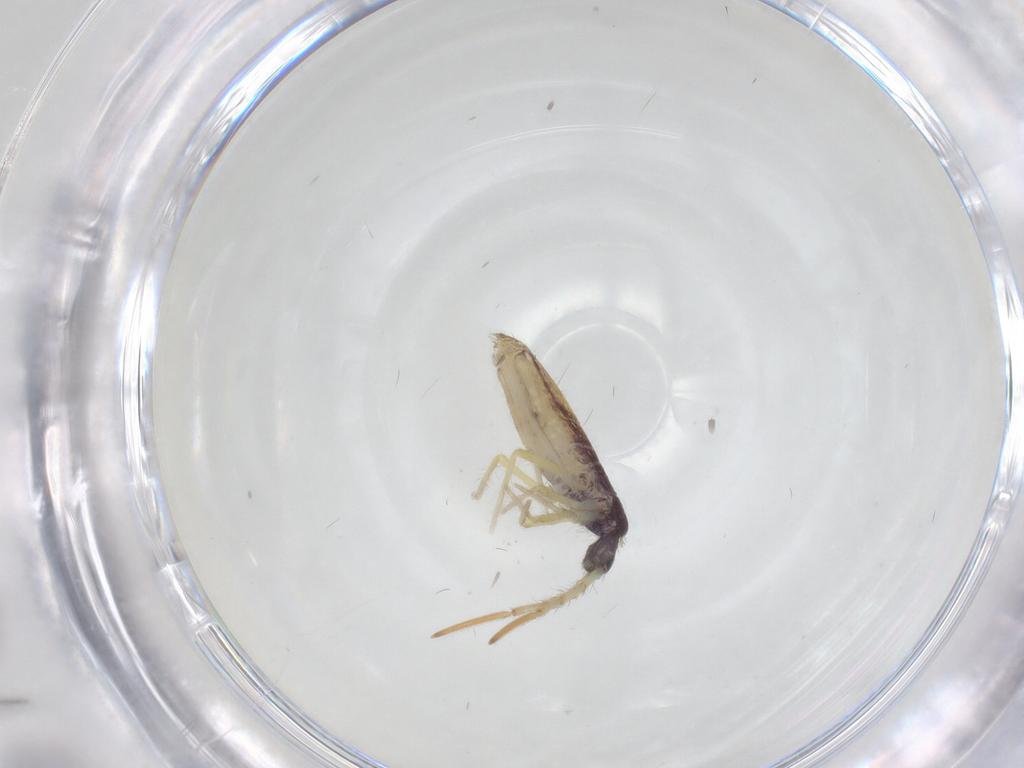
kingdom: Animalia
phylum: Arthropoda
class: Collembola
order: Entomobryomorpha
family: Entomobryidae
